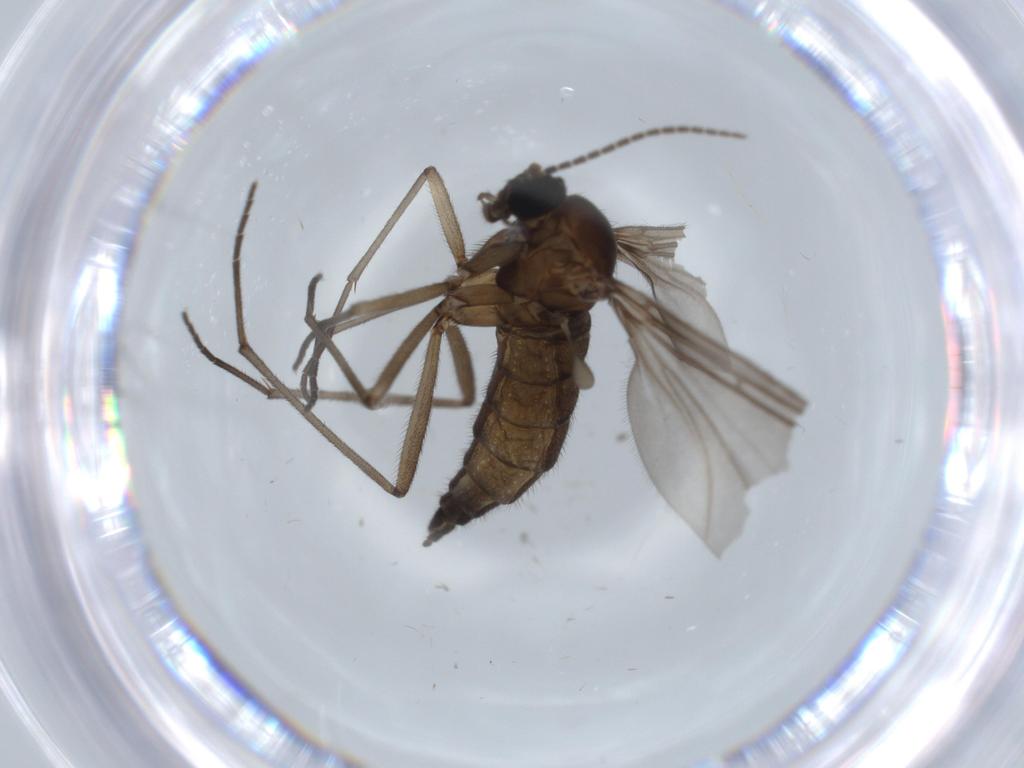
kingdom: Animalia
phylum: Arthropoda
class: Insecta
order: Diptera
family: Sciaridae
